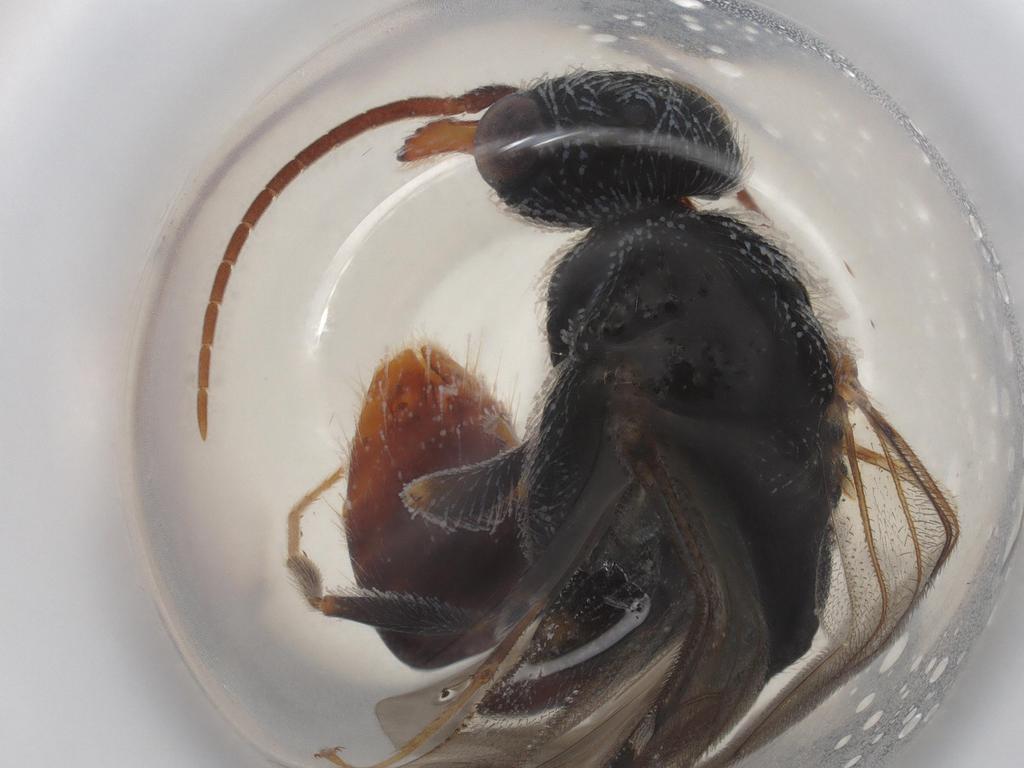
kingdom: Animalia
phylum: Arthropoda
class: Insecta
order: Hymenoptera
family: Bethylidae
